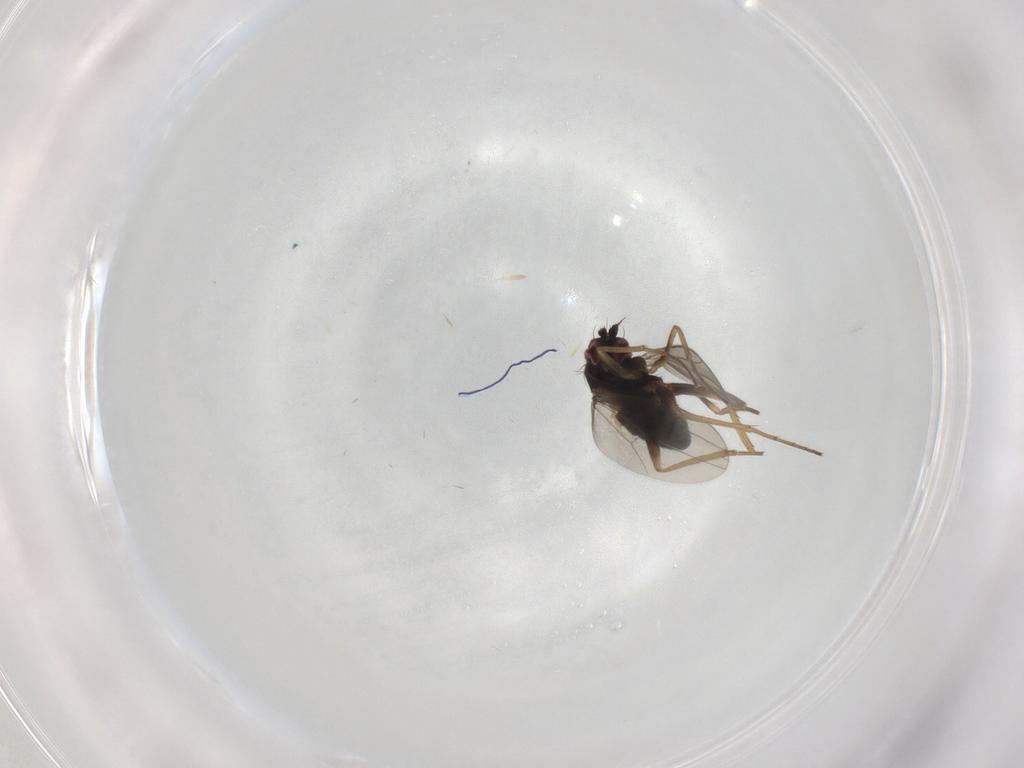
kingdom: Animalia
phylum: Arthropoda
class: Insecta
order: Diptera
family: Dolichopodidae
